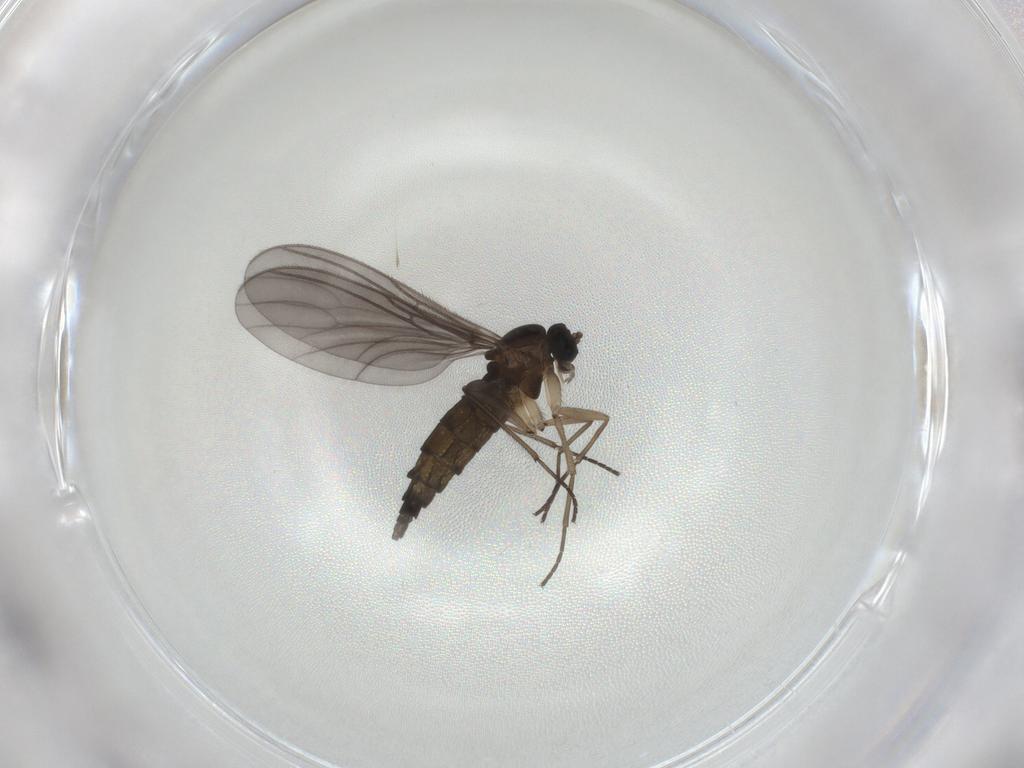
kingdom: Animalia
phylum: Arthropoda
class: Insecta
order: Diptera
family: Sciaridae
